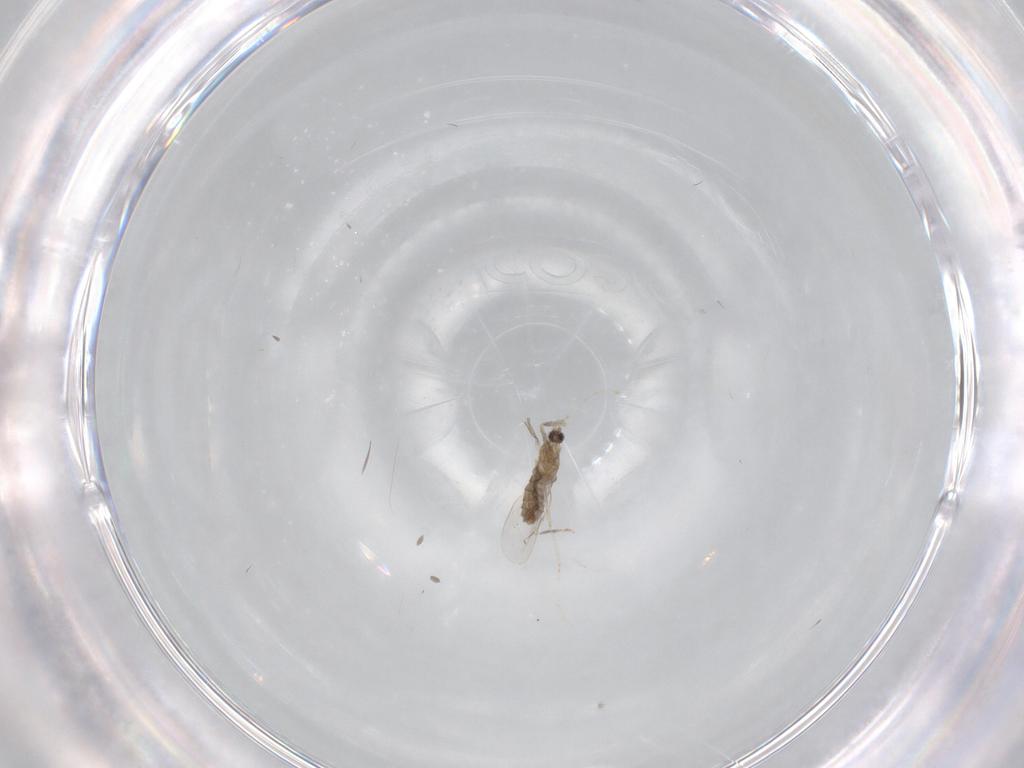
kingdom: Animalia
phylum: Arthropoda
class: Insecta
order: Diptera
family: Cecidomyiidae
